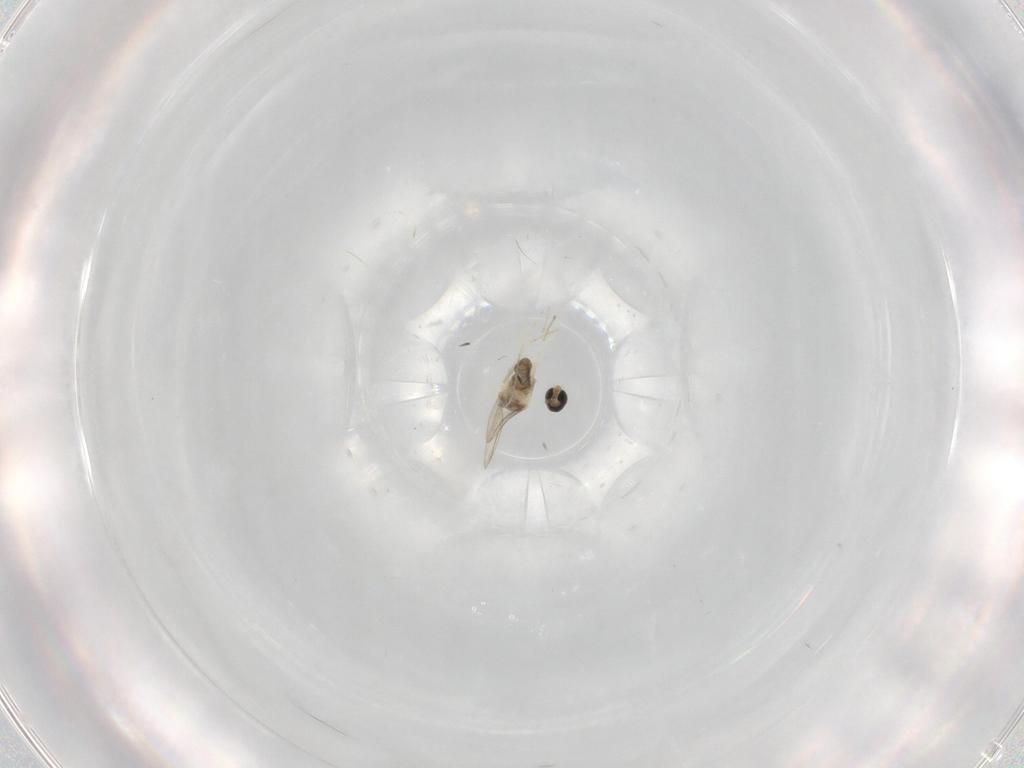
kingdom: Animalia
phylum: Arthropoda
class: Insecta
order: Diptera
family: Cecidomyiidae
